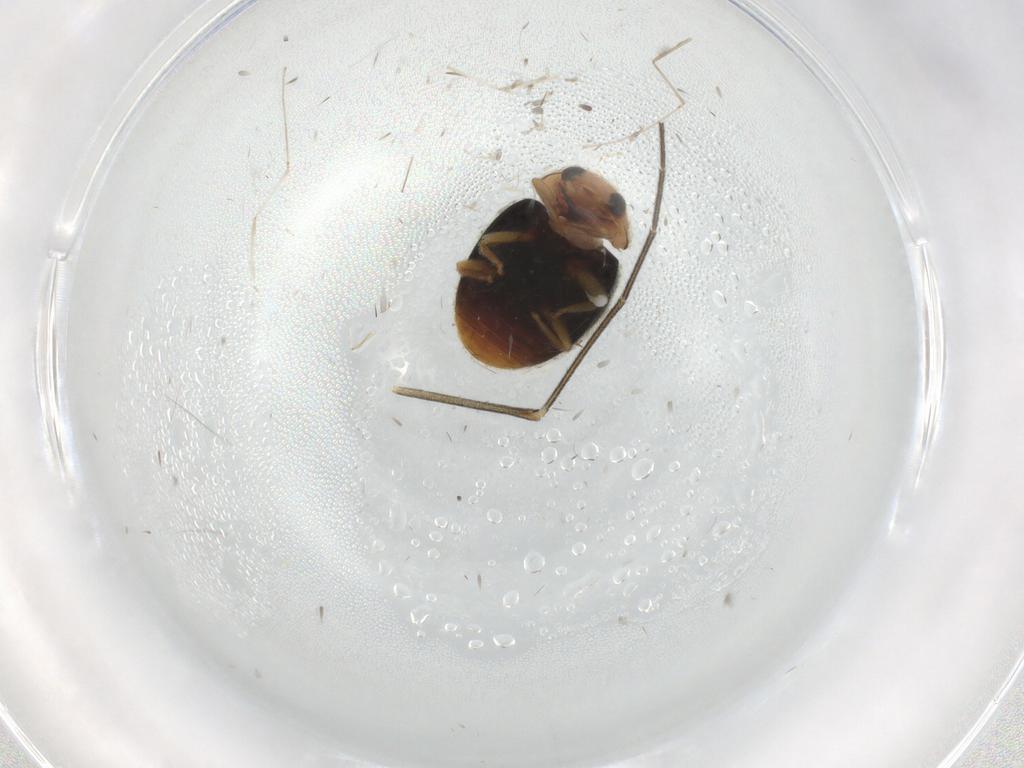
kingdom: Animalia
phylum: Arthropoda
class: Insecta
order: Coleoptera
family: Coccinellidae
